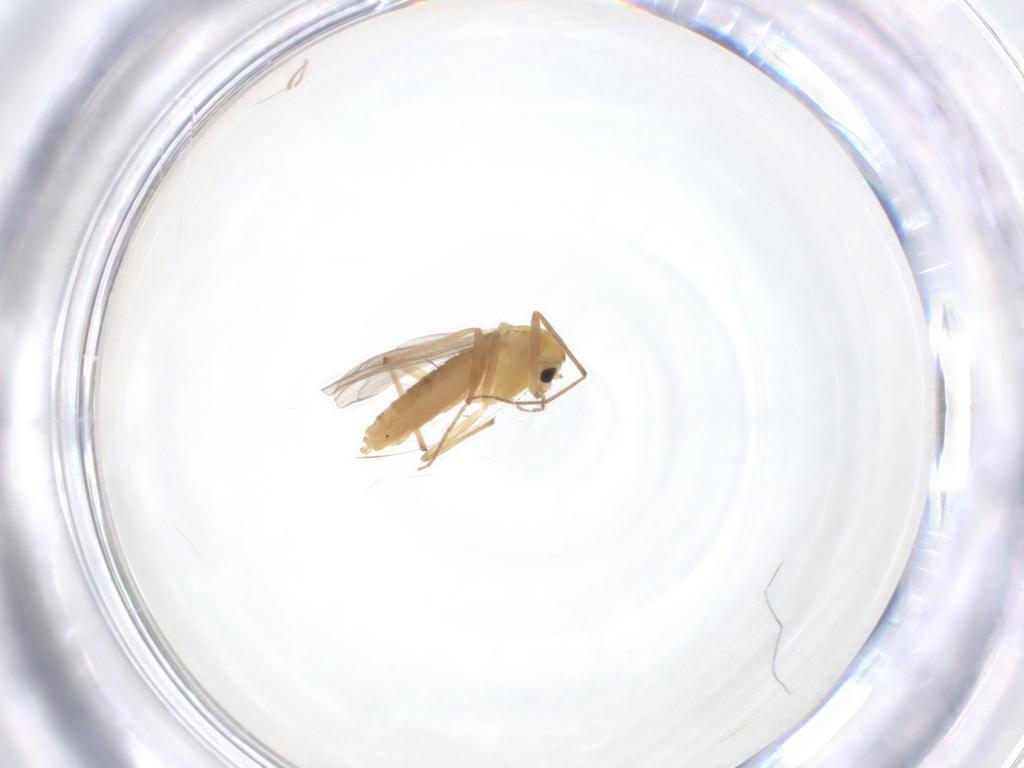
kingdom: Animalia
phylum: Arthropoda
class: Insecta
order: Diptera
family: Chironomidae
